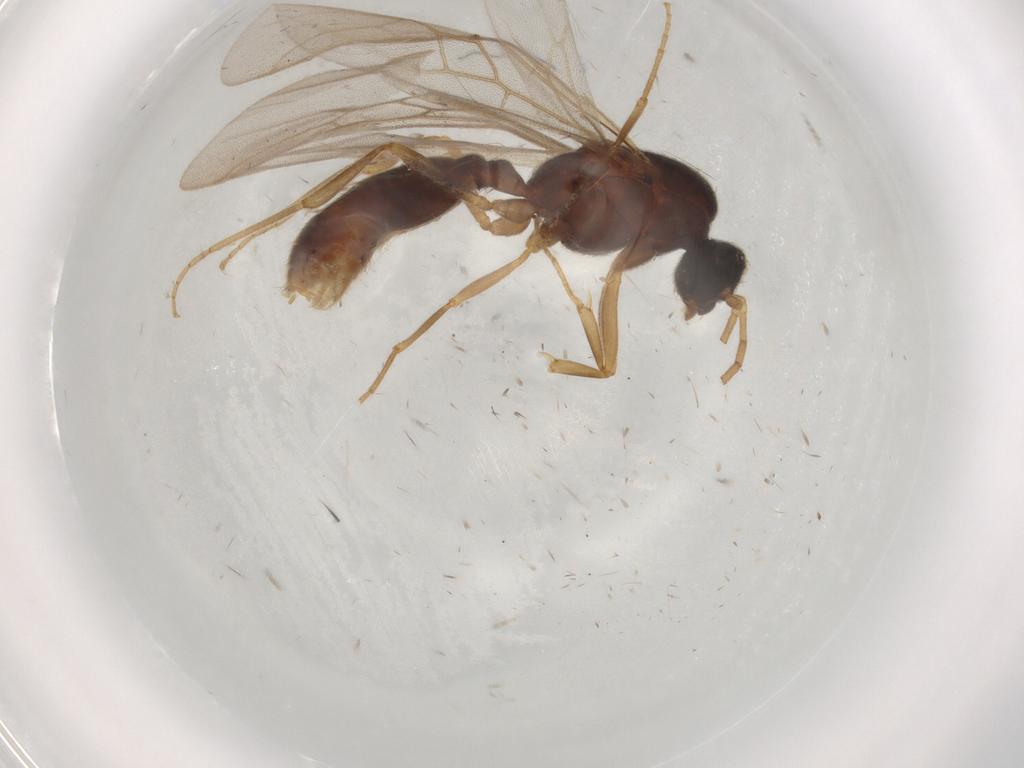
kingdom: Animalia
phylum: Arthropoda
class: Insecta
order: Hymenoptera
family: Formicidae
